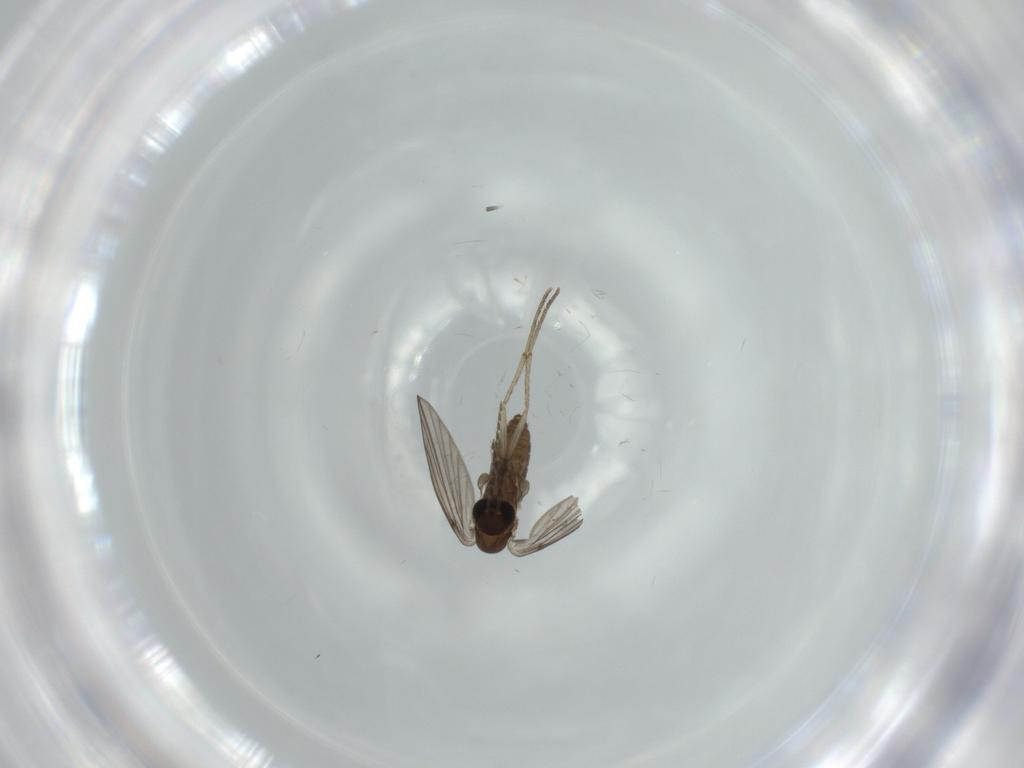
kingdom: Animalia
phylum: Arthropoda
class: Insecta
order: Diptera
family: Psychodidae
